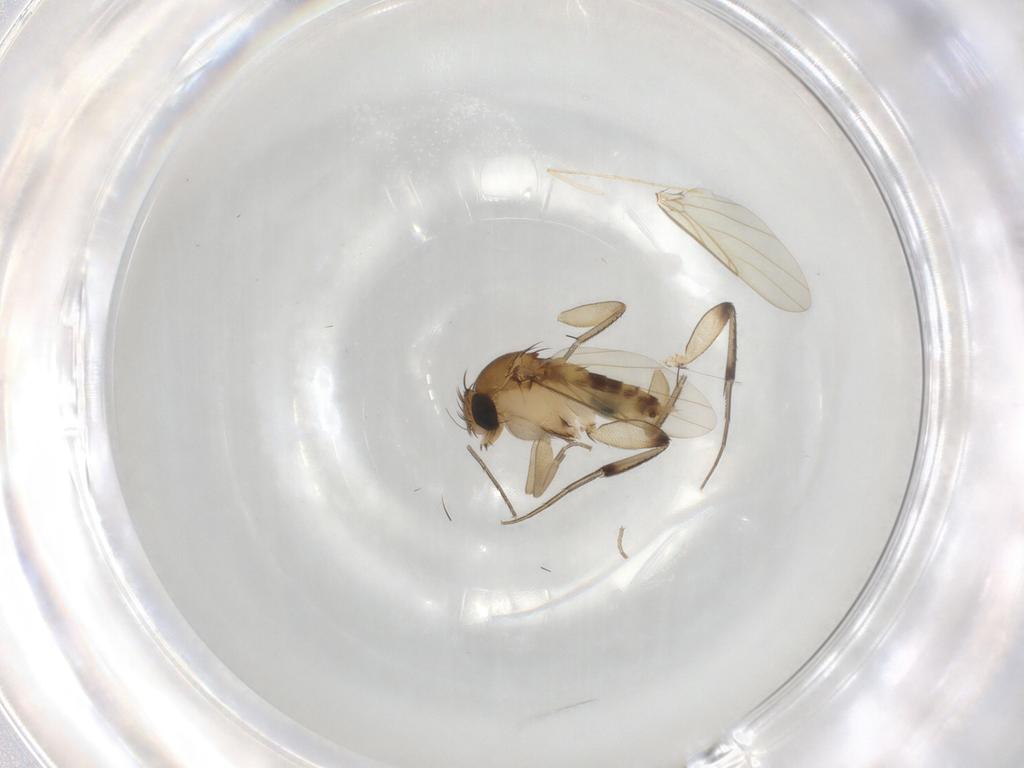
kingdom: Animalia
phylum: Arthropoda
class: Insecta
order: Diptera
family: Phoridae
